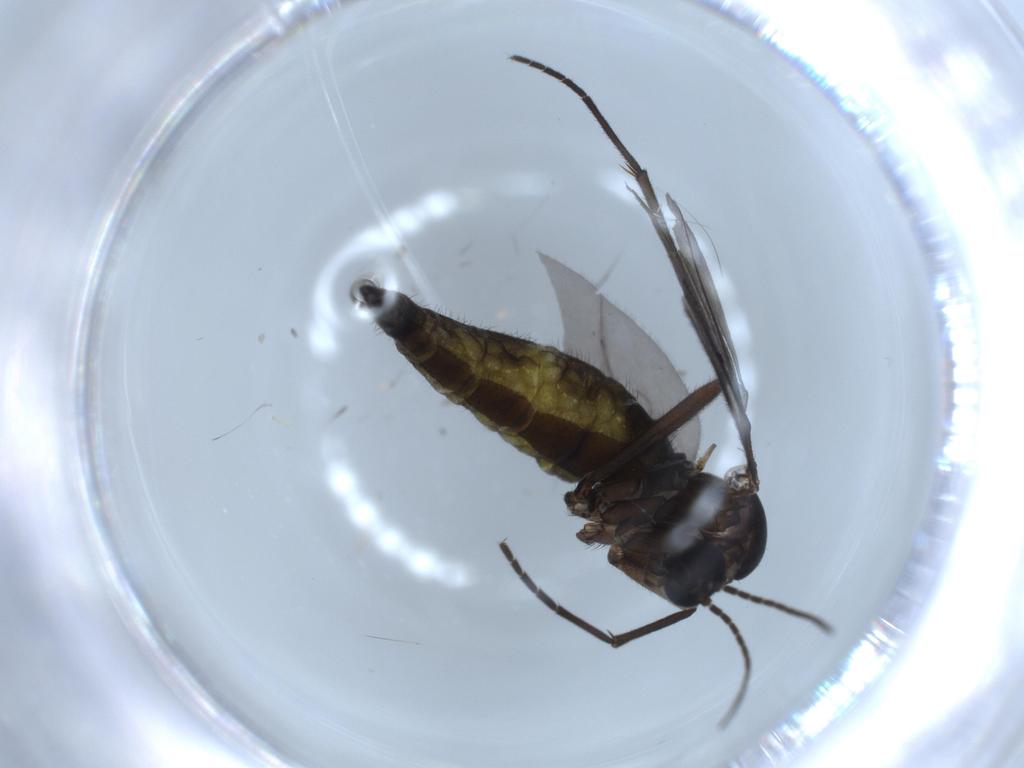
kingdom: Animalia
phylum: Arthropoda
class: Insecta
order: Diptera
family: Sciaridae
